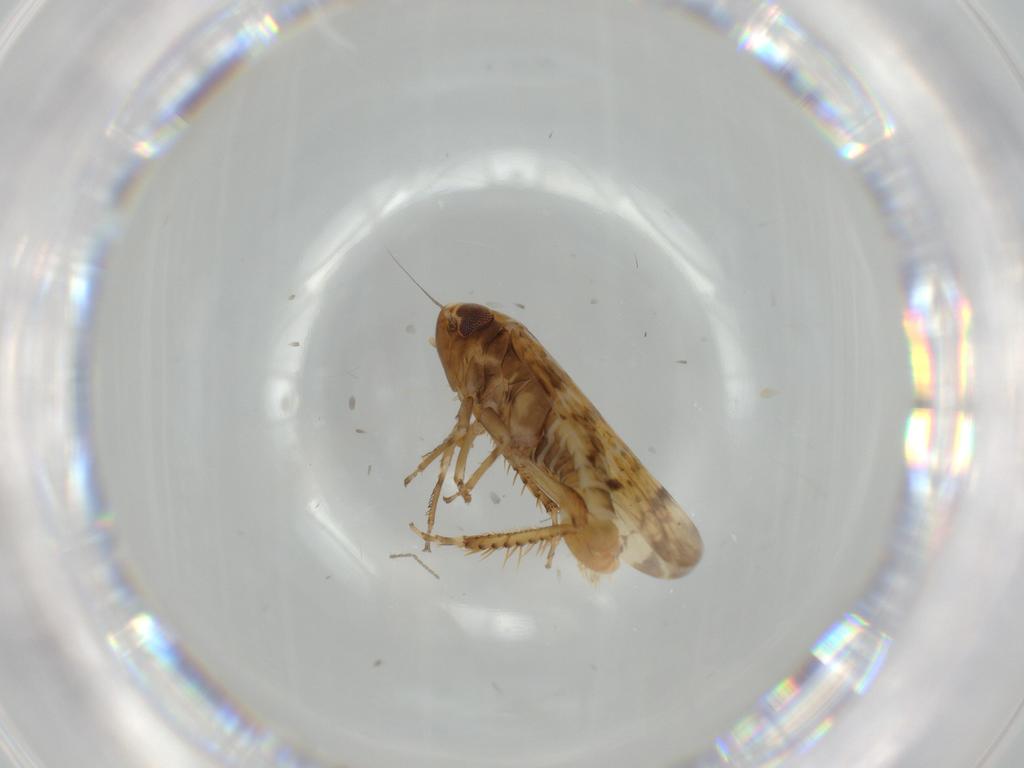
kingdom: Animalia
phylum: Arthropoda
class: Insecta
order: Hemiptera
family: Cicadellidae
